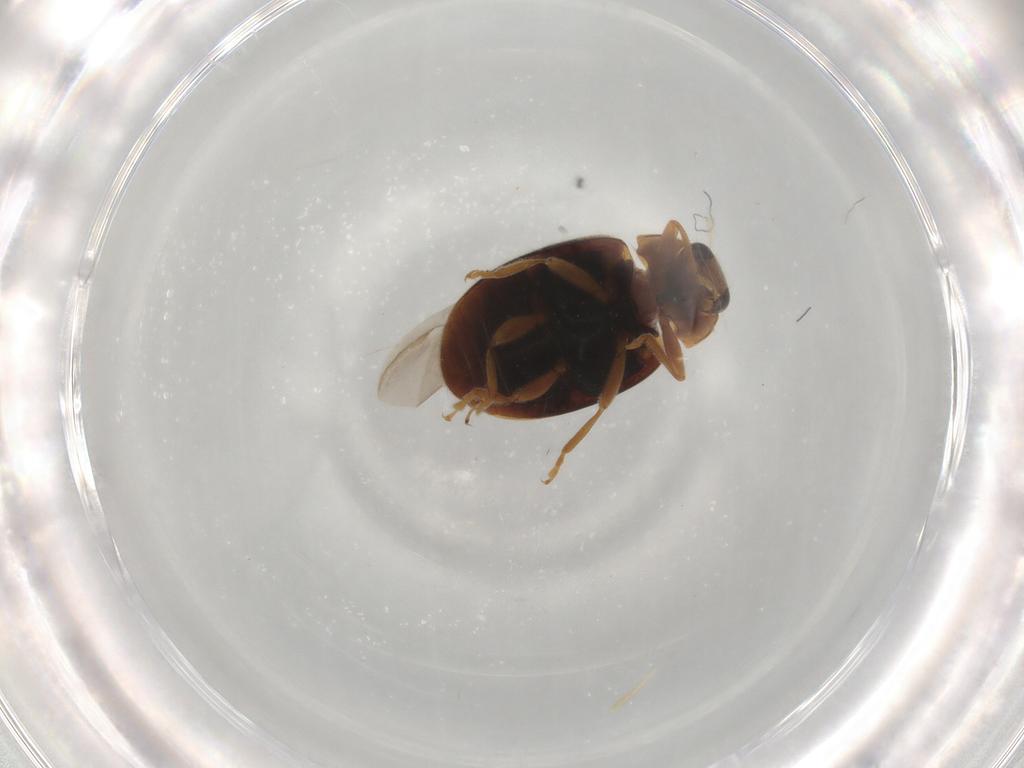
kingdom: Animalia
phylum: Arthropoda
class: Insecta
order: Coleoptera
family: Coccinellidae
